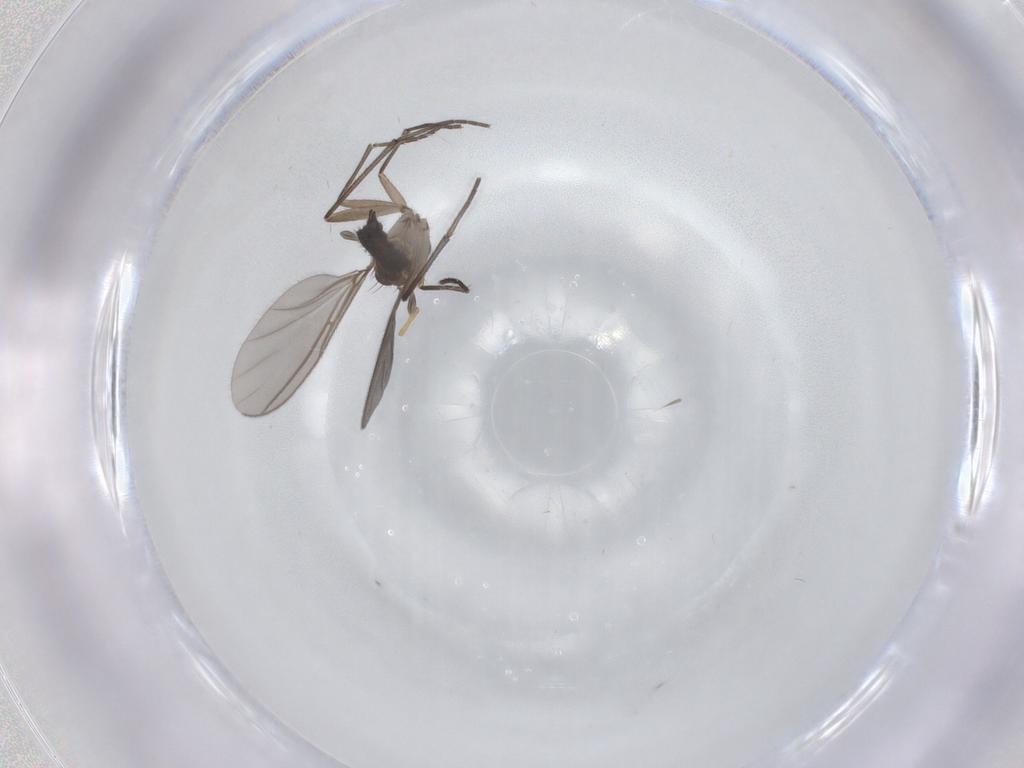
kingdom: Animalia
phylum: Arthropoda
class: Insecta
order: Diptera
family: Sciaridae
